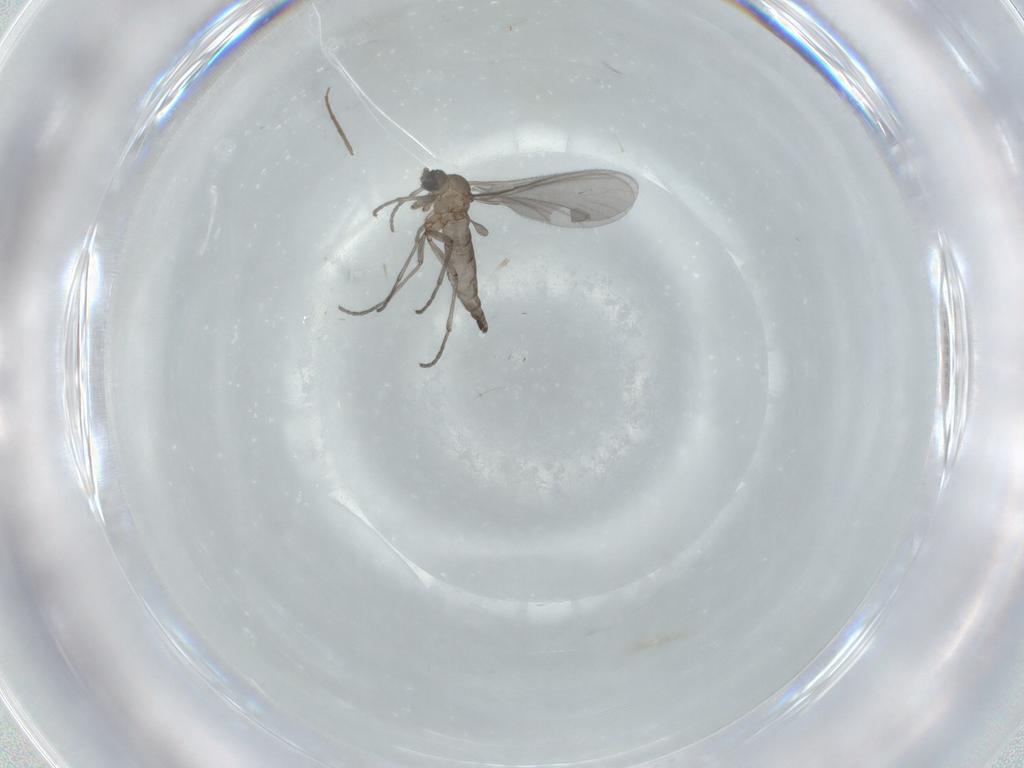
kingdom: Animalia
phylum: Arthropoda
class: Insecta
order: Diptera
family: Sciaridae
